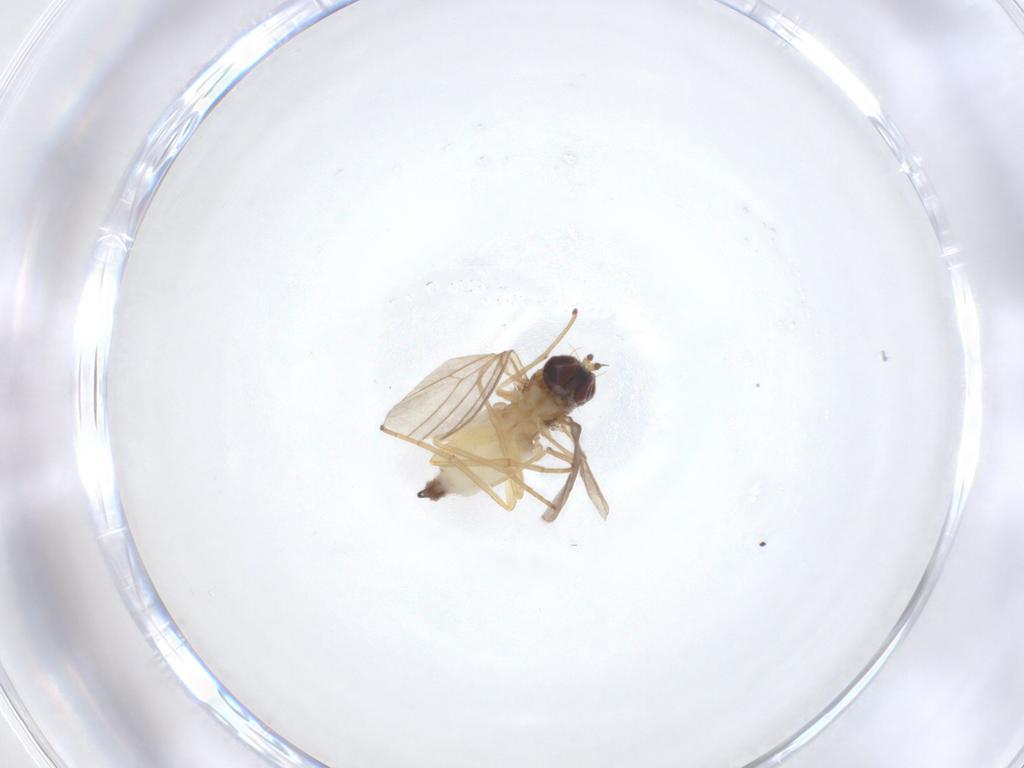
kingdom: Animalia
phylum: Arthropoda
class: Insecta
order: Diptera
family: Dolichopodidae
